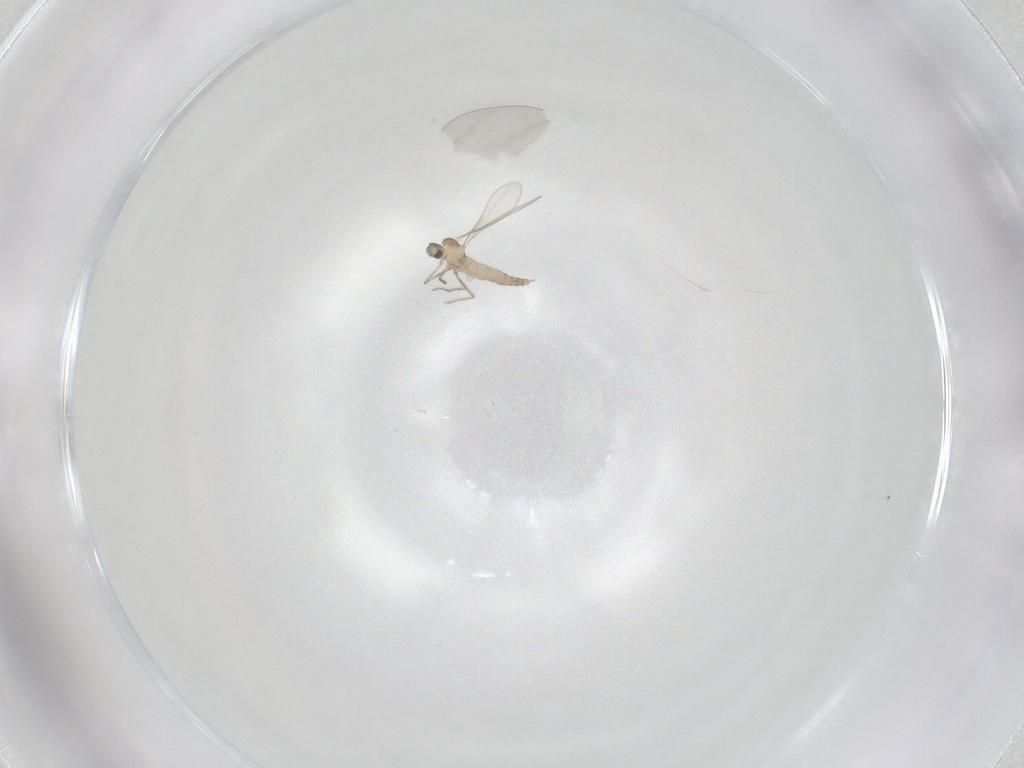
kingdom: Animalia
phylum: Arthropoda
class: Insecta
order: Diptera
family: Cecidomyiidae
